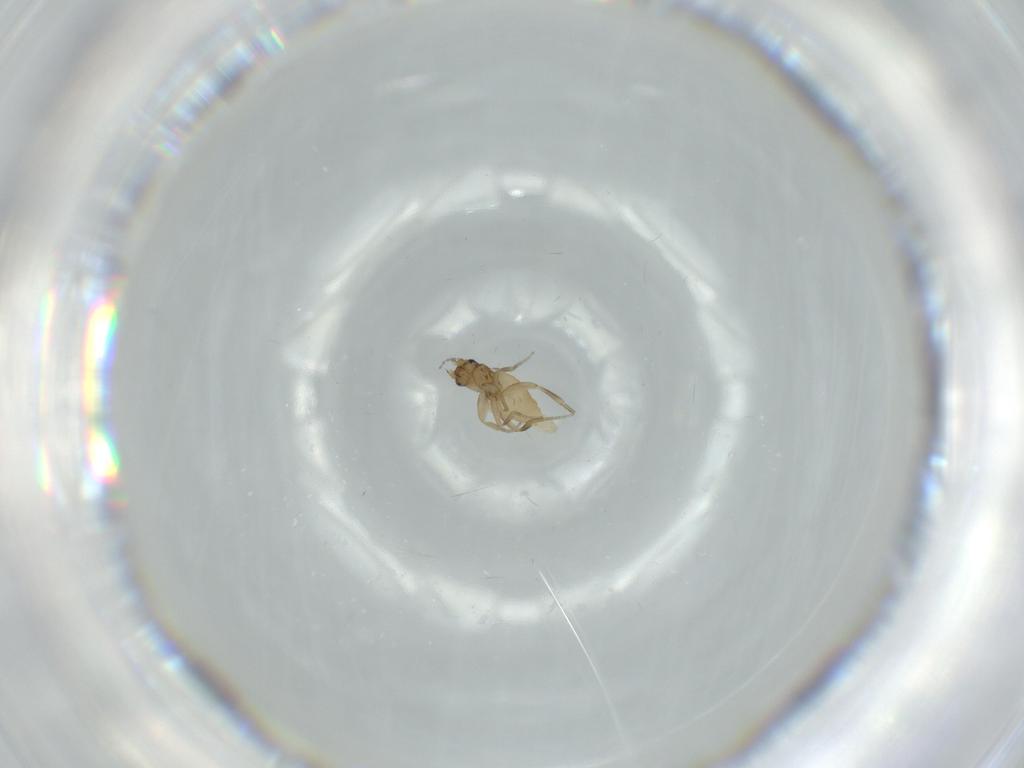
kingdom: Animalia
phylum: Arthropoda
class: Insecta
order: Diptera
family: Phoridae
